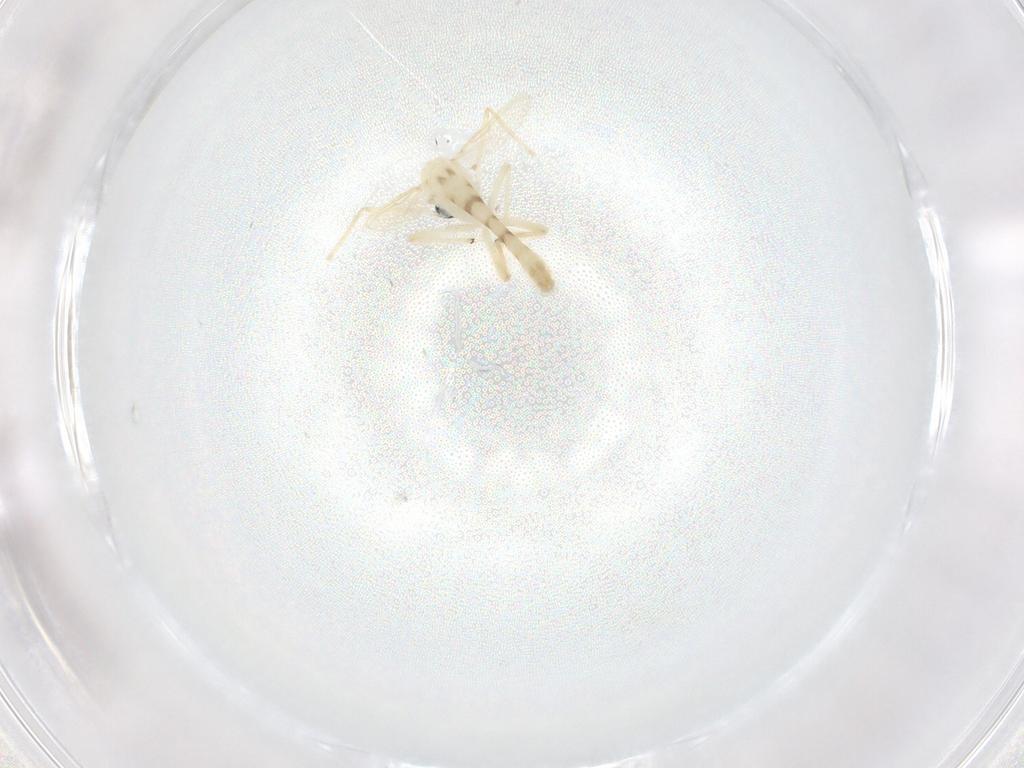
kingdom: Animalia
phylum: Arthropoda
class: Insecta
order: Diptera
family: Chironomidae
